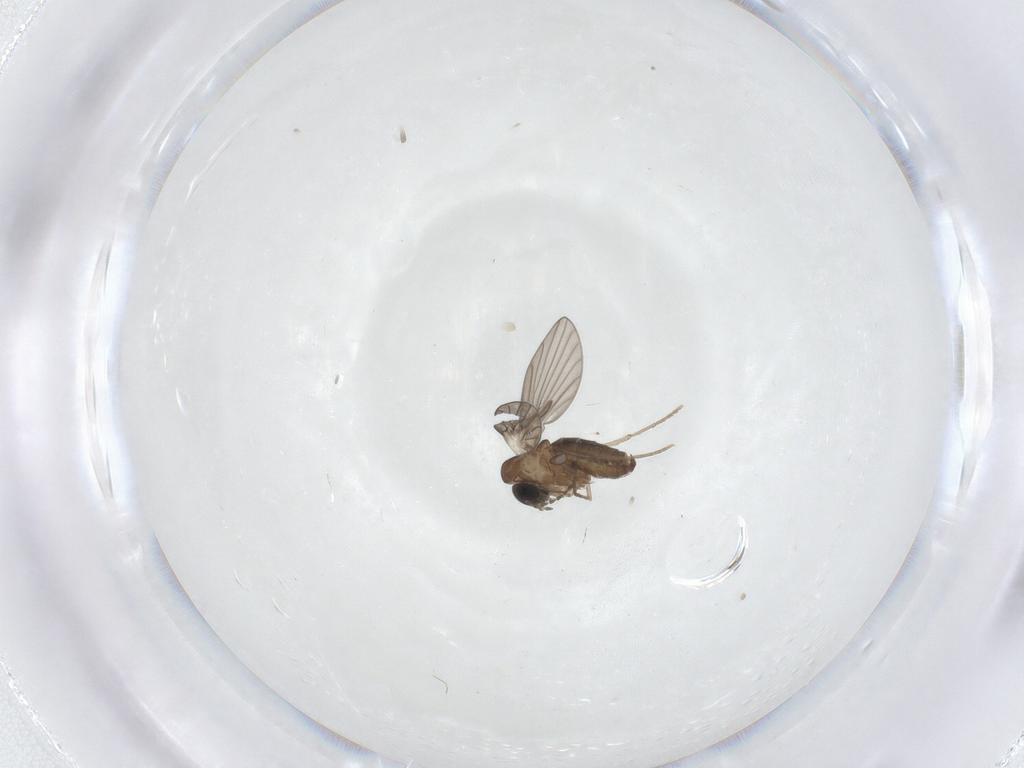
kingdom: Animalia
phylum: Arthropoda
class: Insecta
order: Diptera
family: Psychodidae
